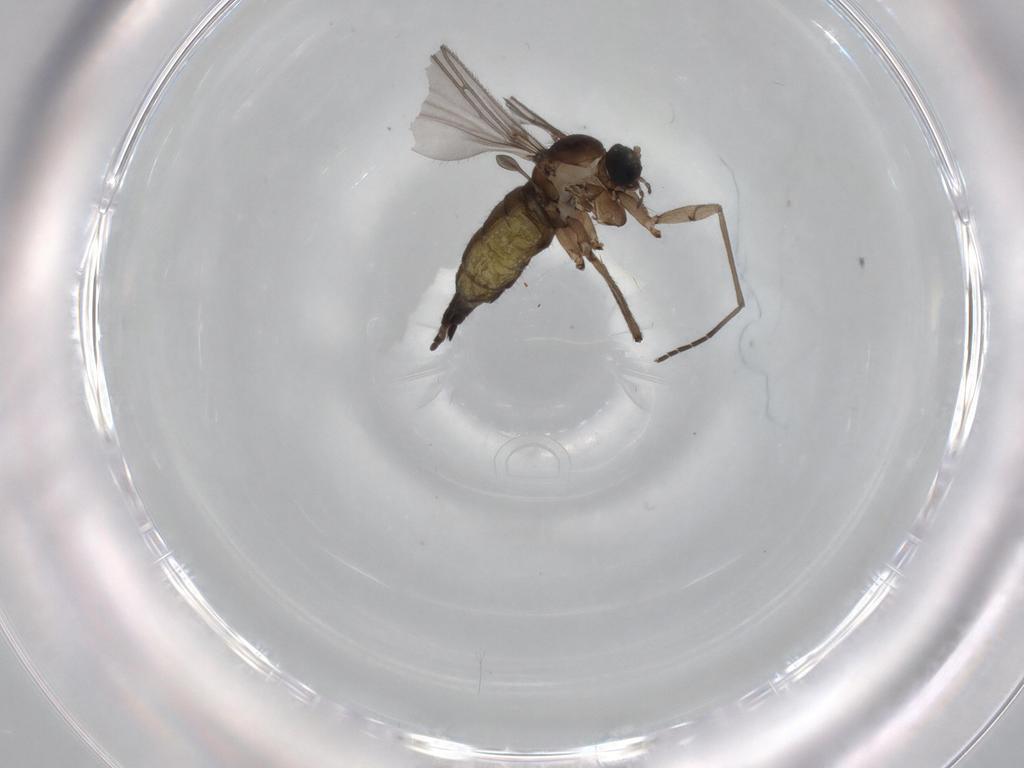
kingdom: Animalia
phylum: Arthropoda
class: Insecta
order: Diptera
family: Sciaridae
